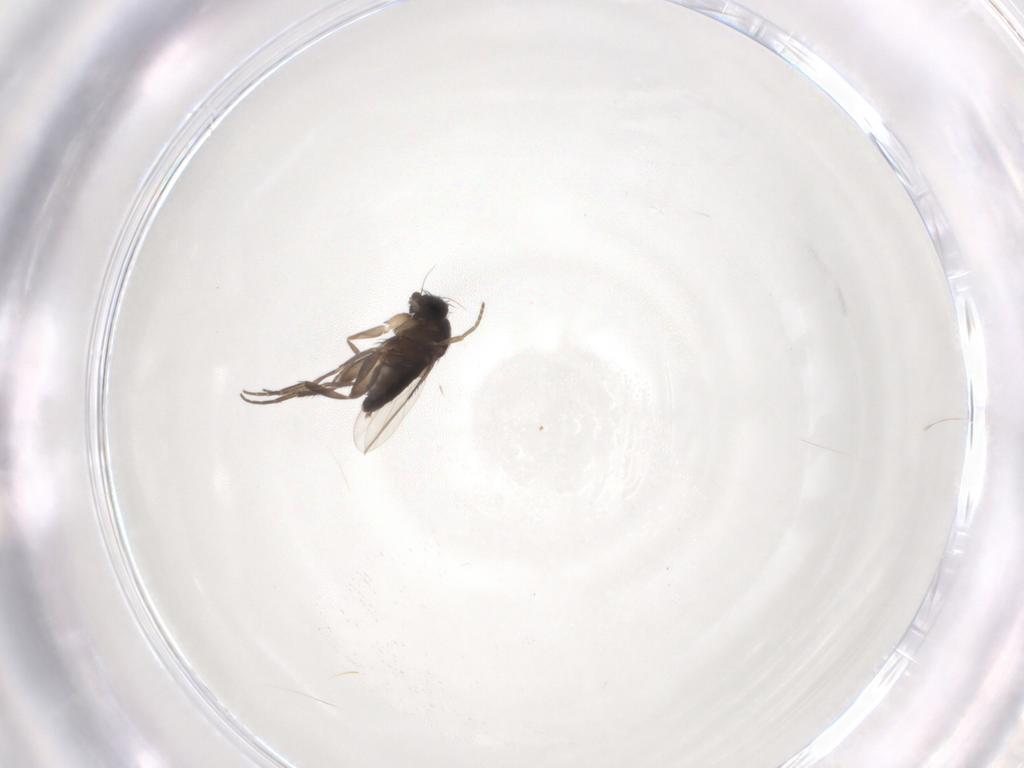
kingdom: Animalia
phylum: Arthropoda
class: Insecta
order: Diptera
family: Phoridae
